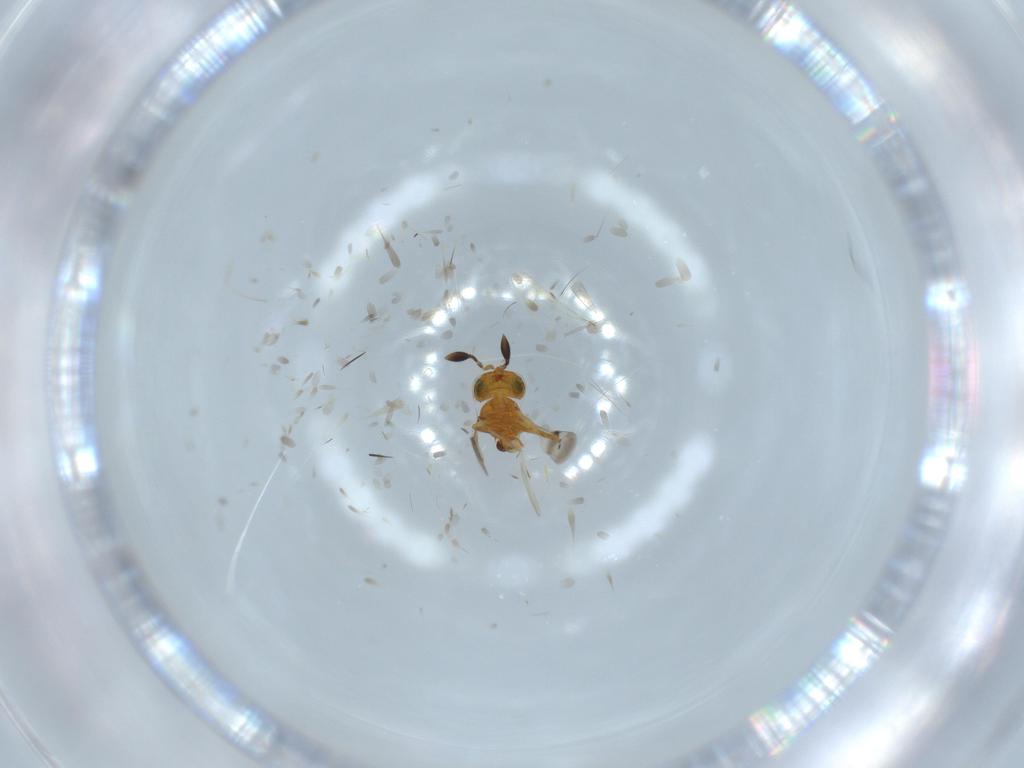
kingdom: Animalia
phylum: Arthropoda
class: Insecta
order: Hymenoptera
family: Scelionidae
